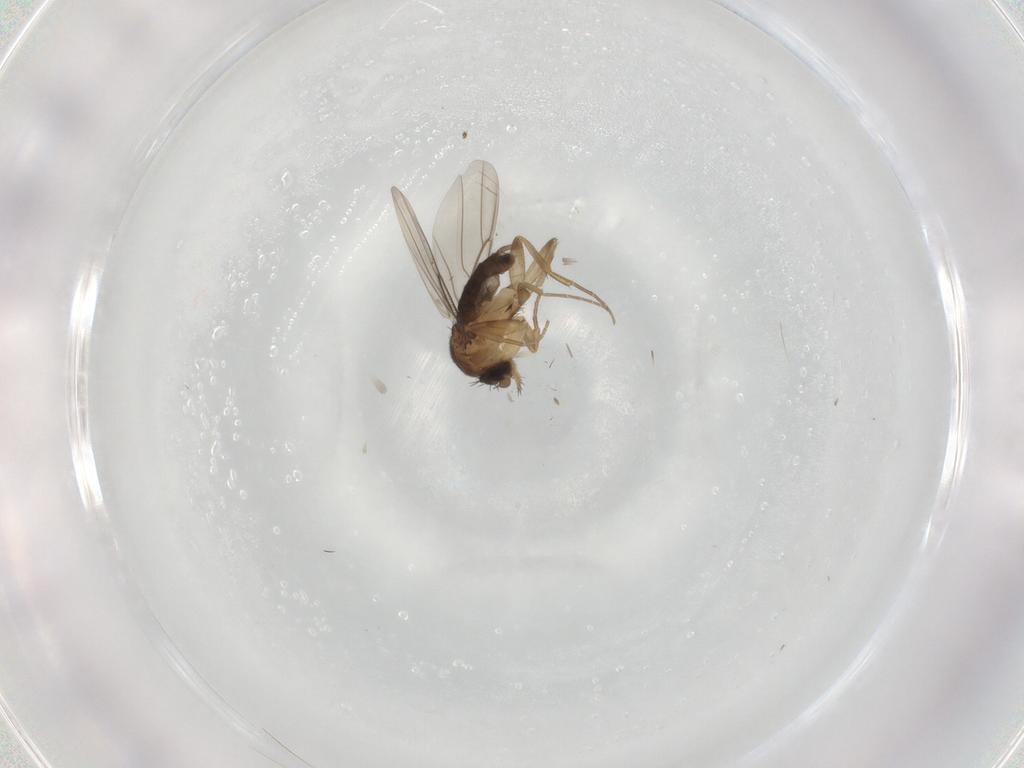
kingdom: Animalia
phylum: Arthropoda
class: Insecta
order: Diptera
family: Phoridae
